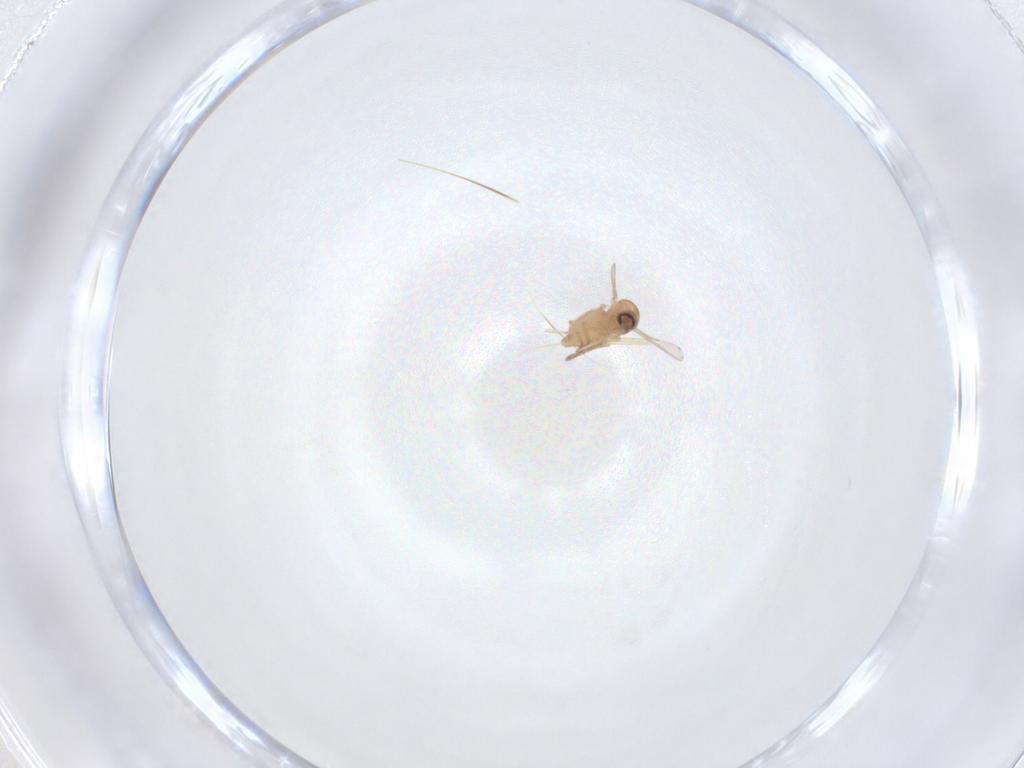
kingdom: Animalia
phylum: Arthropoda
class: Insecta
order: Diptera
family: Ceratopogonidae
